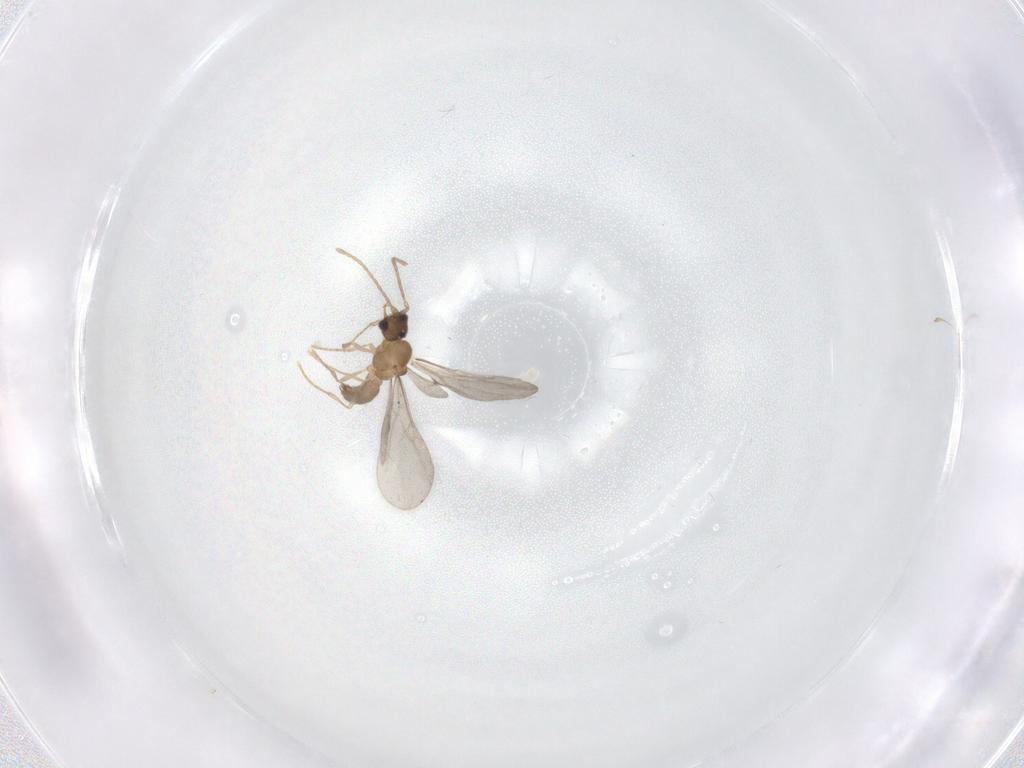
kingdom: Animalia
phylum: Arthropoda
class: Insecta
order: Hymenoptera
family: Formicidae
